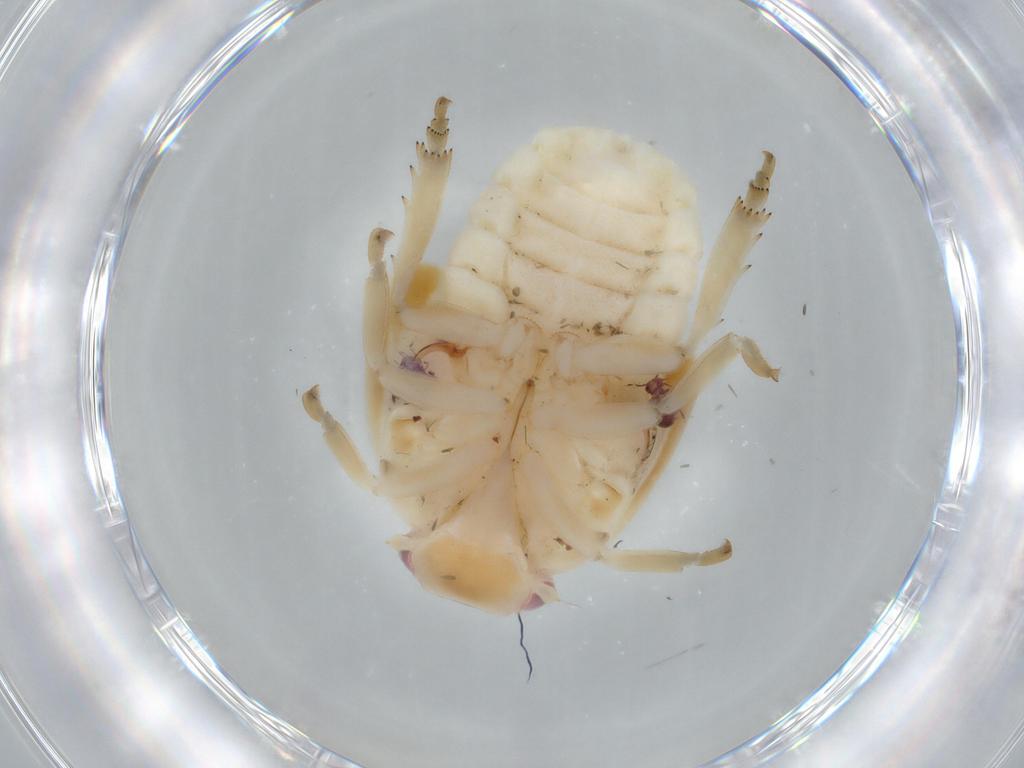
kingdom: Animalia
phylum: Arthropoda
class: Insecta
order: Hemiptera
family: Flatidae
